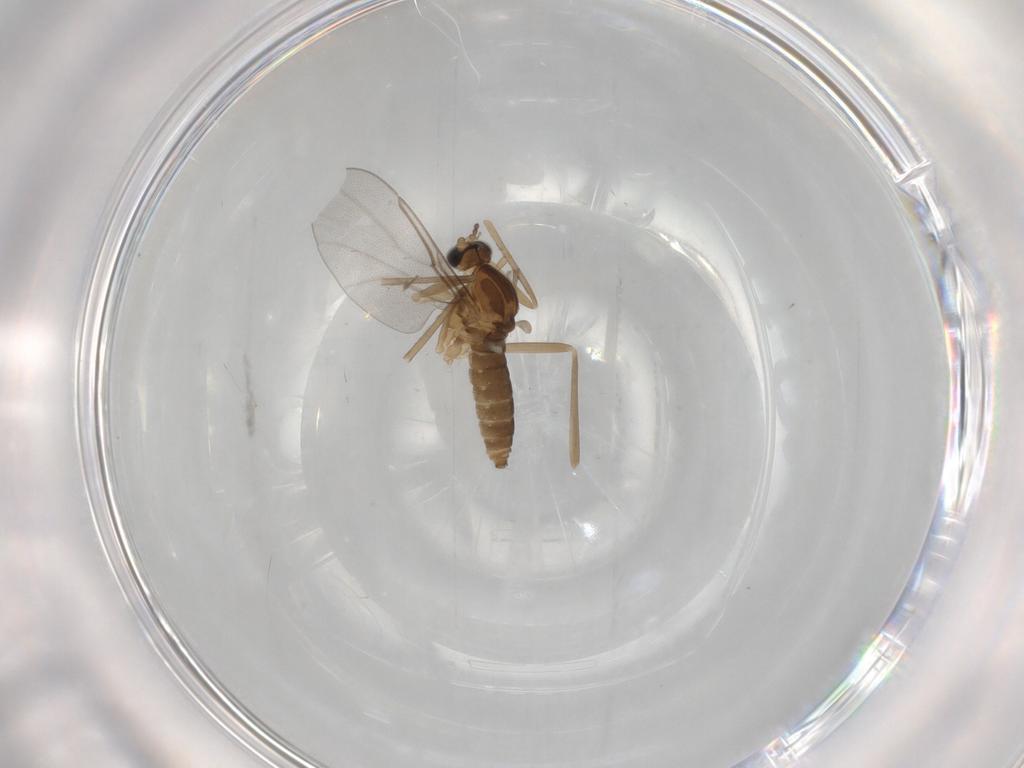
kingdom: Animalia
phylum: Arthropoda
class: Insecta
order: Diptera
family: Cecidomyiidae
